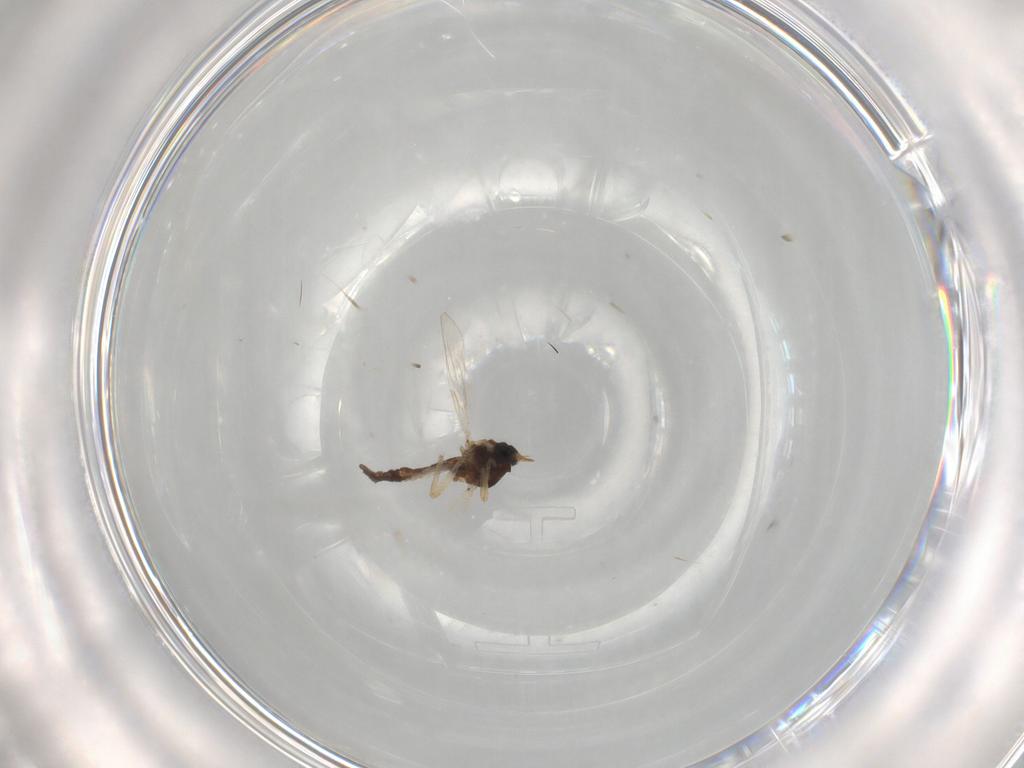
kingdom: Animalia
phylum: Arthropoda
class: Insecta
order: Diptera
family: Ceratopogonidae
